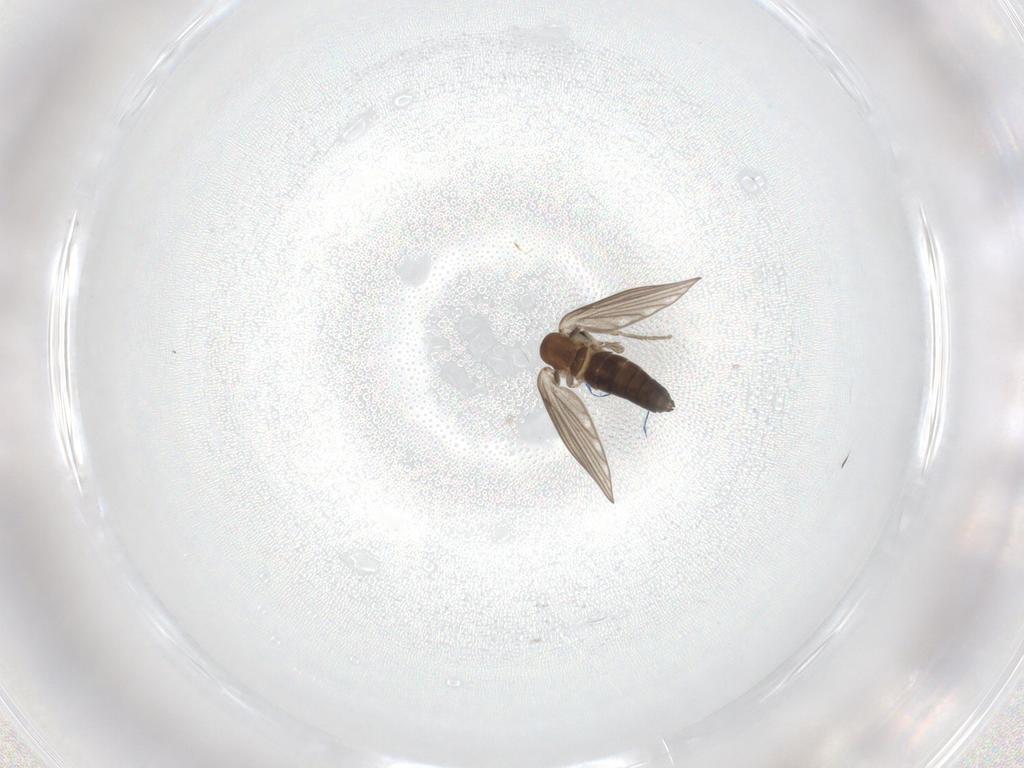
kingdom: Animalia
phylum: Arthropoda
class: Insecta
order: Diptera
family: Psychodidae
